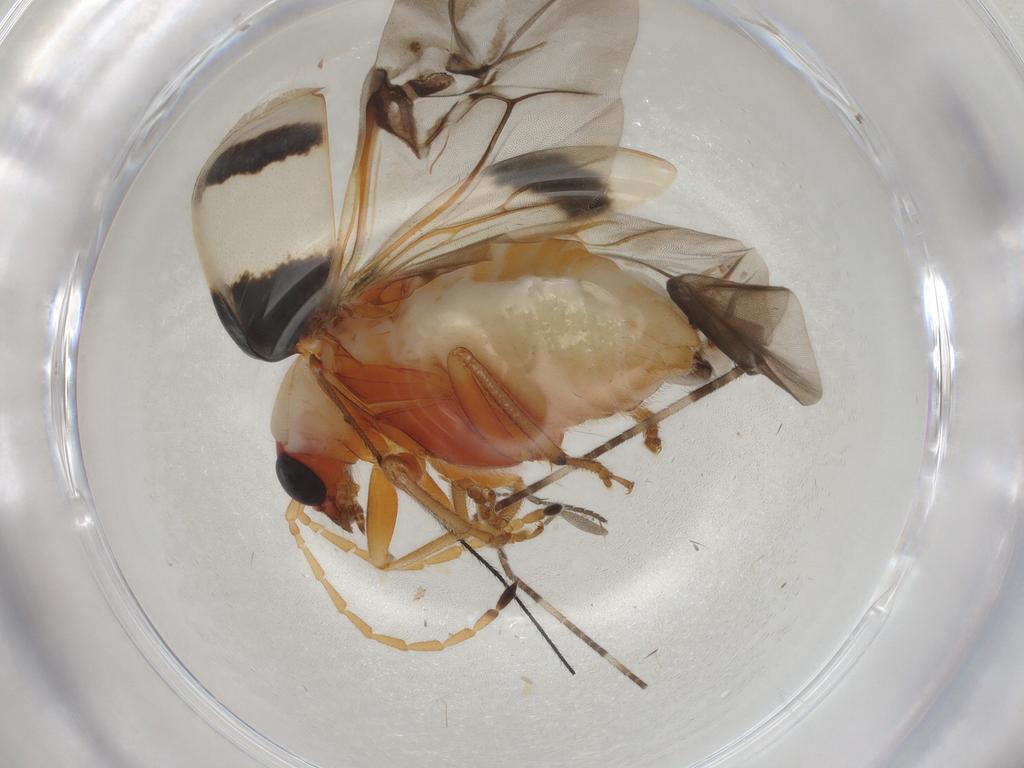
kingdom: Animalia
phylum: Arthropoda
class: Insecta
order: Coleoptera
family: Chrysomelidae
